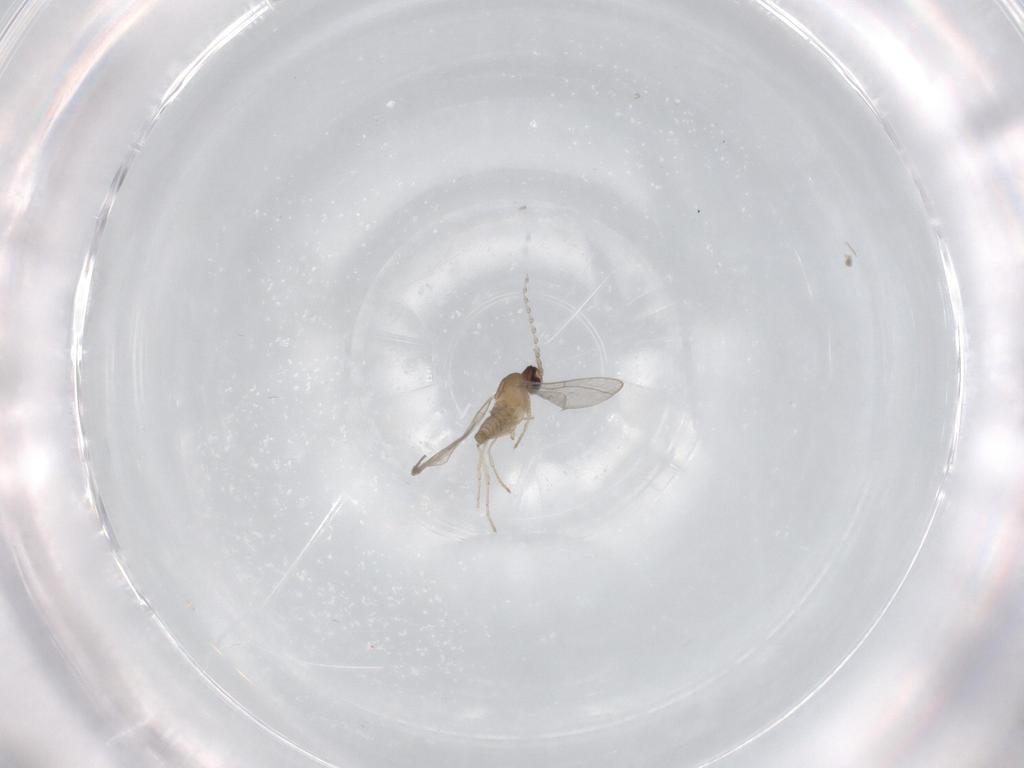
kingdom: Animalia
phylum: Arthropoda
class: Insecta
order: Diptera
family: Cecidomyiidae
